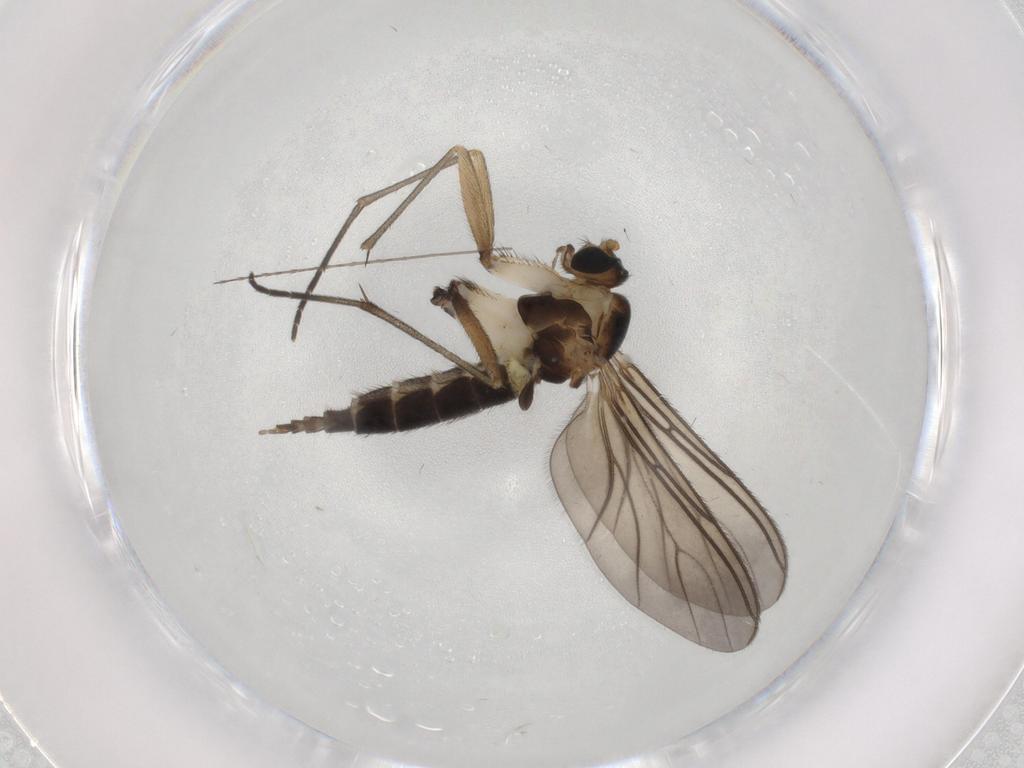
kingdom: Animalia
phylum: Arthropoda
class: Insecta
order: Diptera
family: Sciaridae
